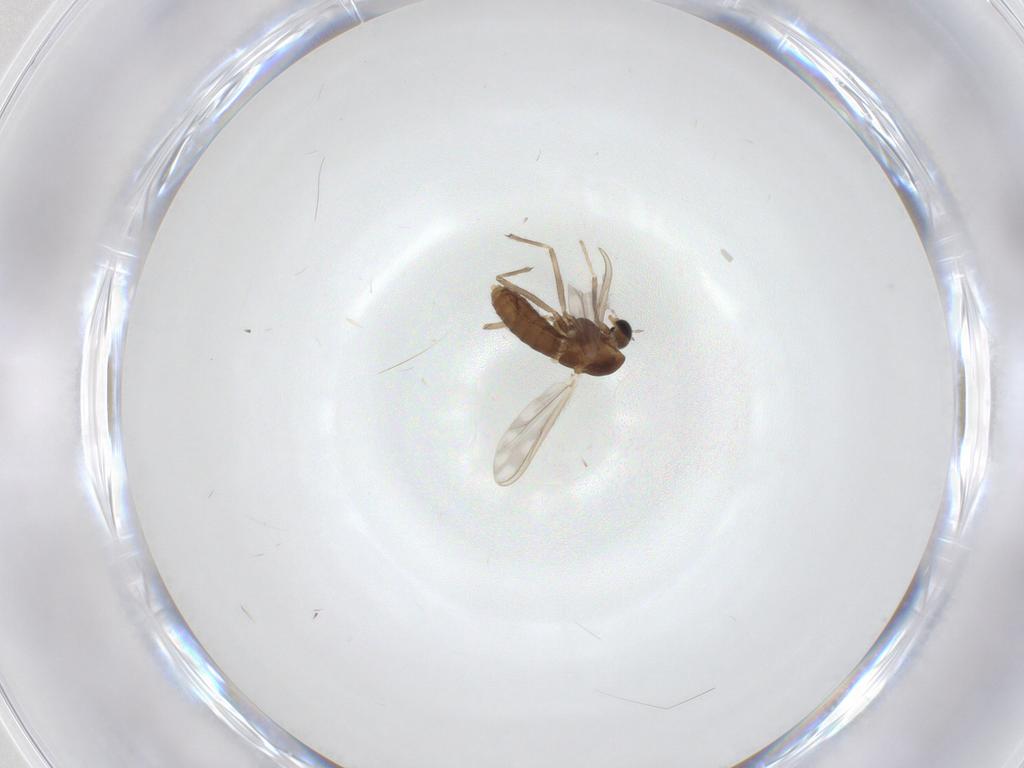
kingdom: Animalia
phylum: Arthropoda
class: Insecta
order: Diptera
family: Chironomidae
